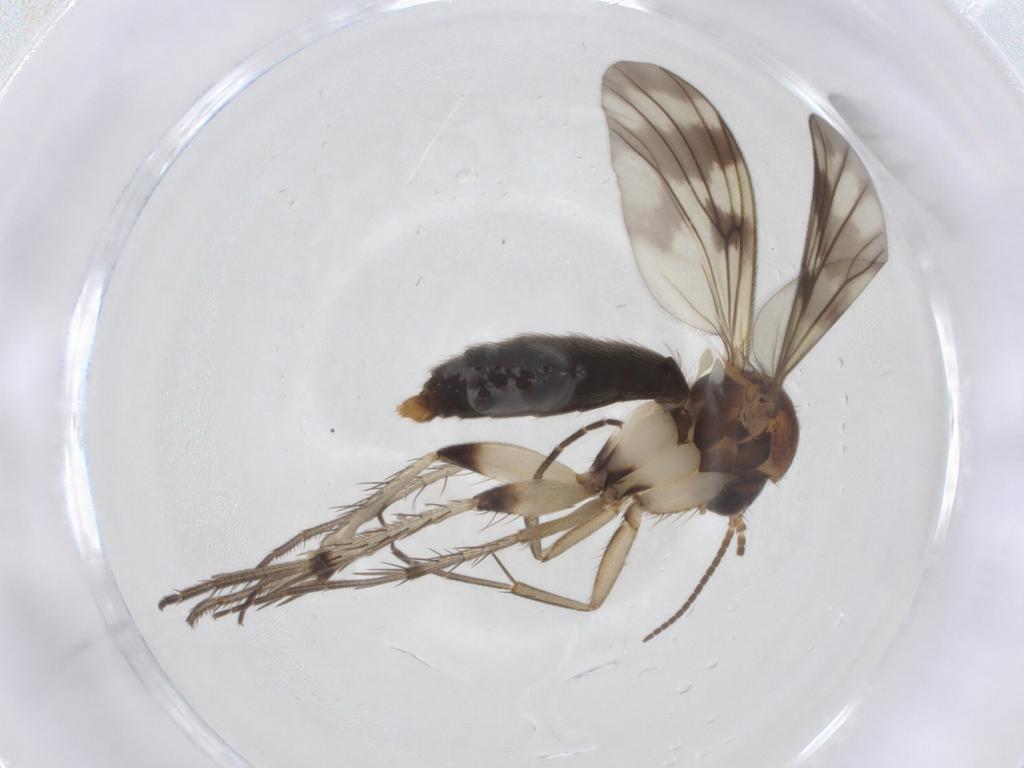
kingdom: Animalia
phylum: Arthropoda
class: Insecta
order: Diptera
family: Mycetophilidae
